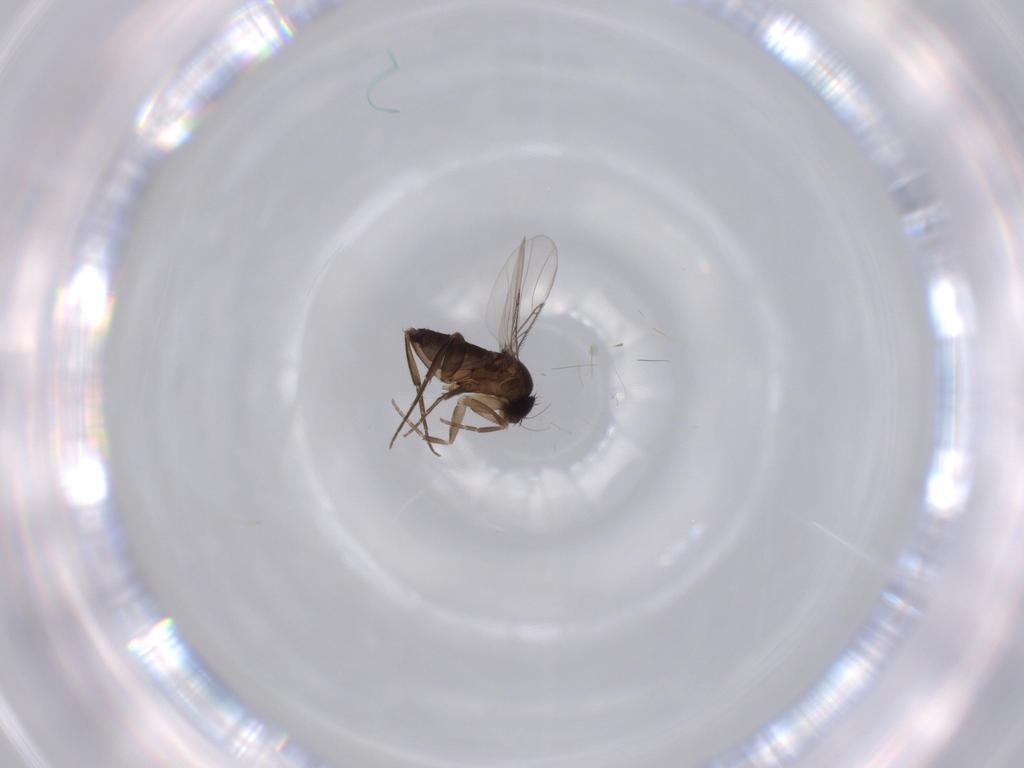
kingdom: Animalia
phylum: Arthropoda
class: Insecta
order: Diptera
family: Phoridae
